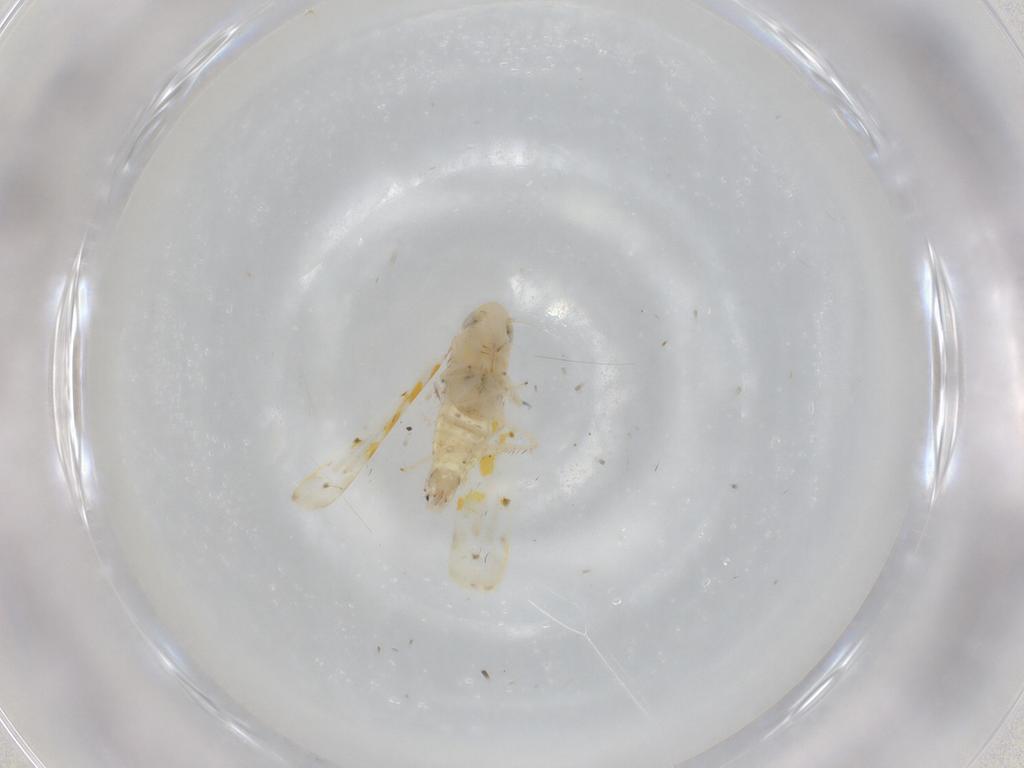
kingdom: Animalia
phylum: Arthropoda
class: Insecta
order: Hemiptera
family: Cicadellidae
